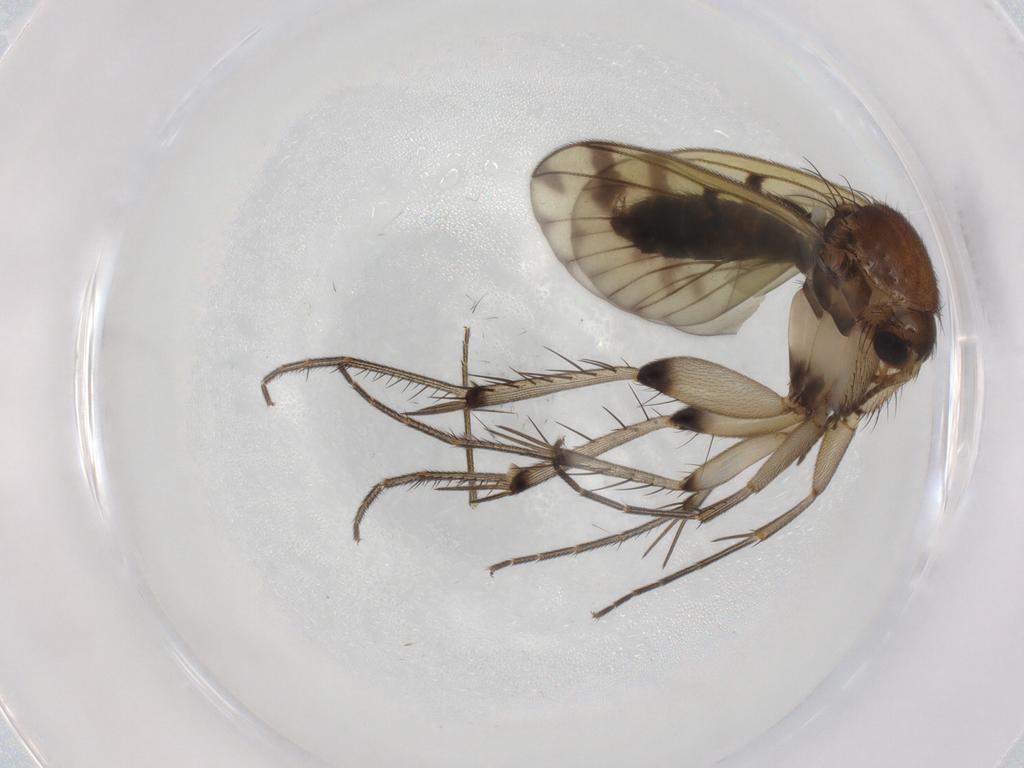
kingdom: Animalia
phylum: Arthropoda
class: Insecta
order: Diptera
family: Mycetophilidae
